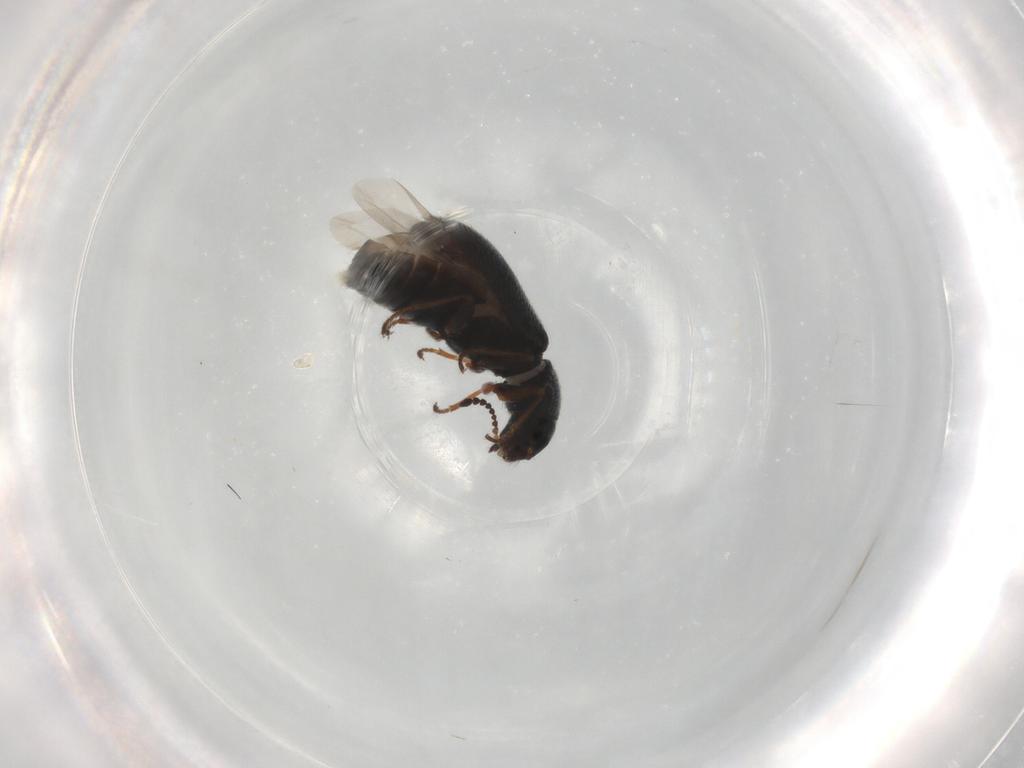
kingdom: Animalia
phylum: Arthropoda
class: Insecta
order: Coleoptera
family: Melyridae
